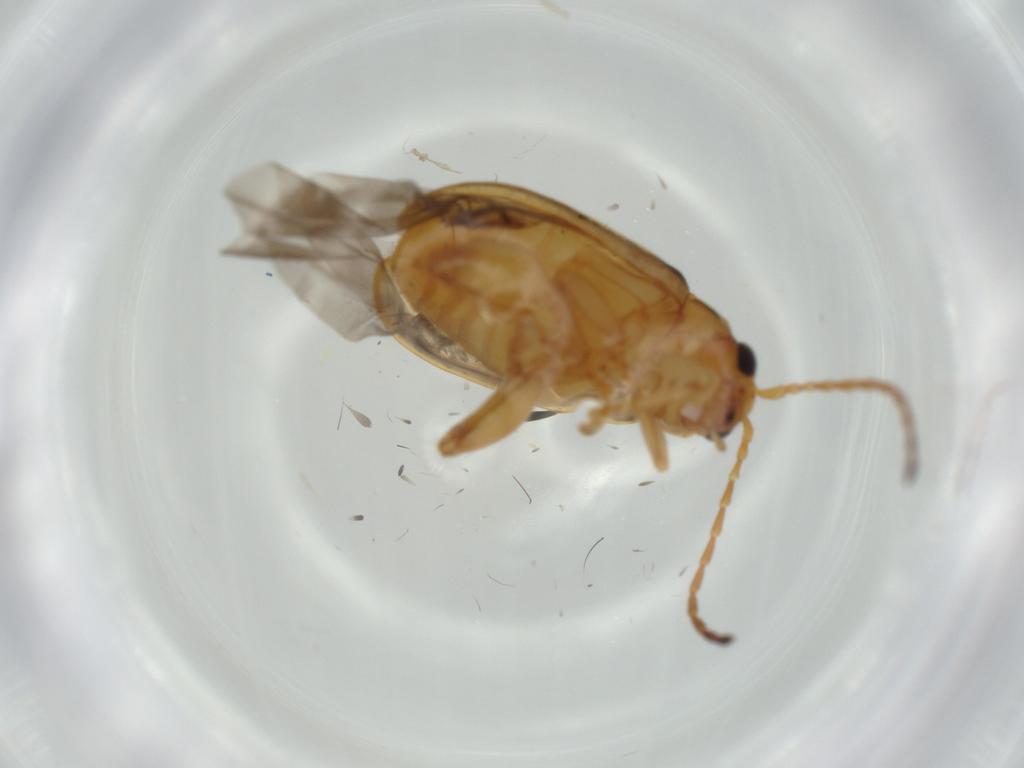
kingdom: Animalia
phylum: Arthropoda
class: Insecta
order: Coleoptera
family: Chrysomelidae
